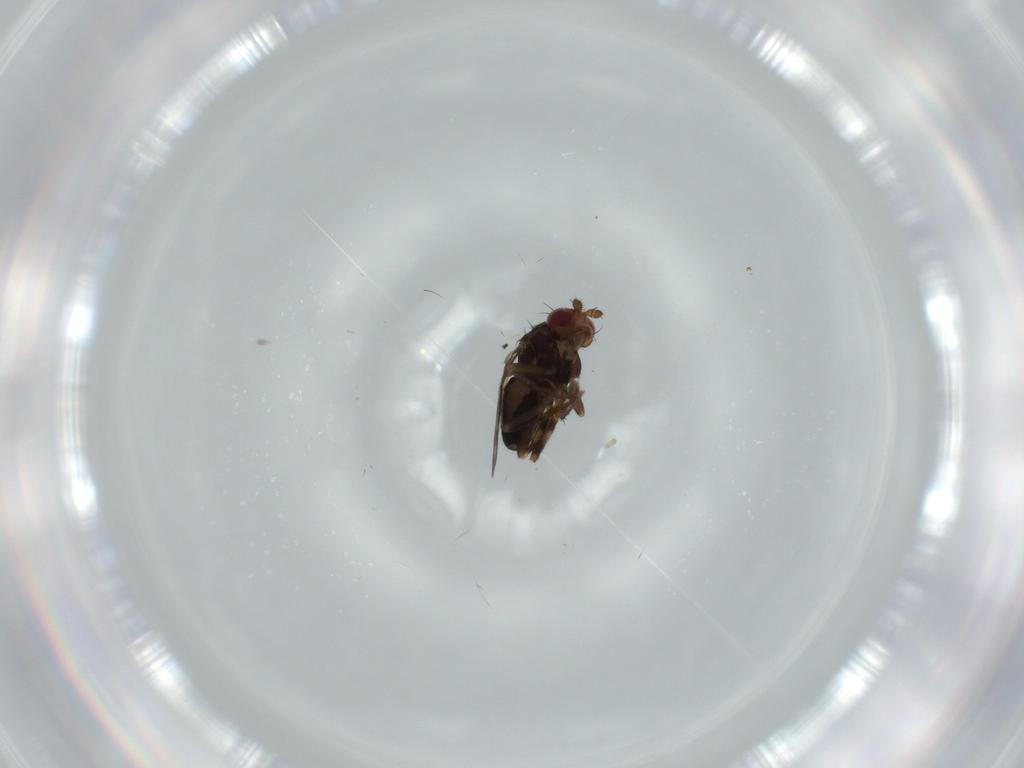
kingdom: Animalia
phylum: Arthropoda
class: Insecta
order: Diptera
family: Sphaeroceridae
